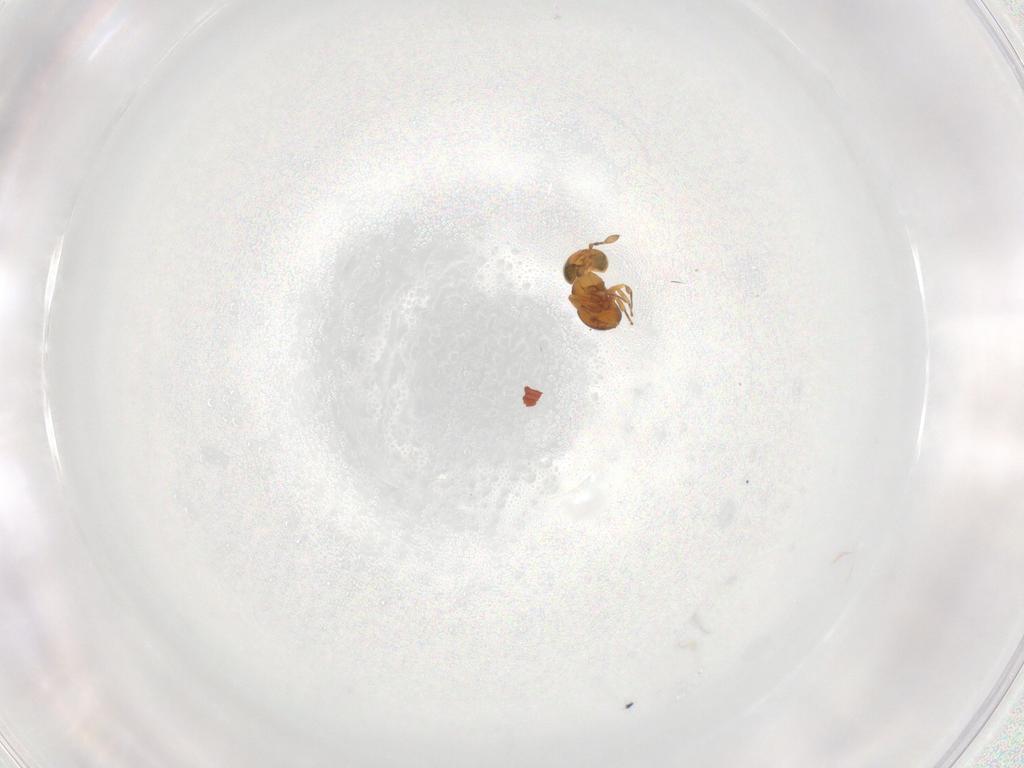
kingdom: Animalia
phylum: Arthropoda
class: Insecta
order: Hymenoptera
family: Scelionidae
